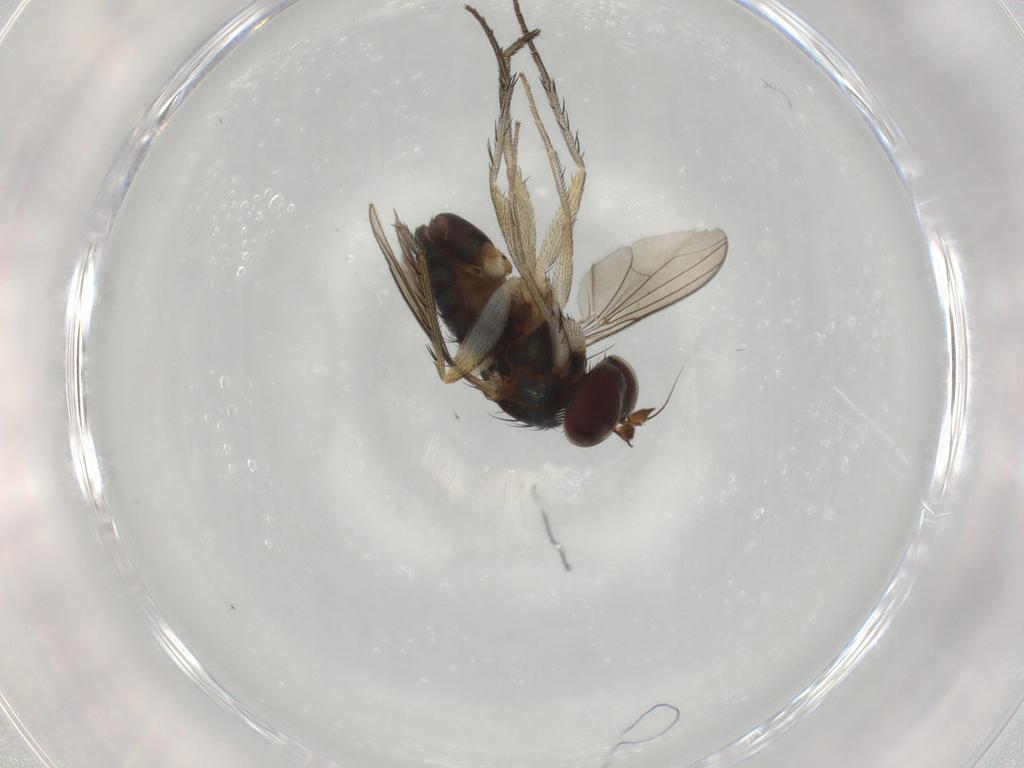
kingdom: Animalia
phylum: Arthropoda
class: Insecta
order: Diptera
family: Dolichopodidae
